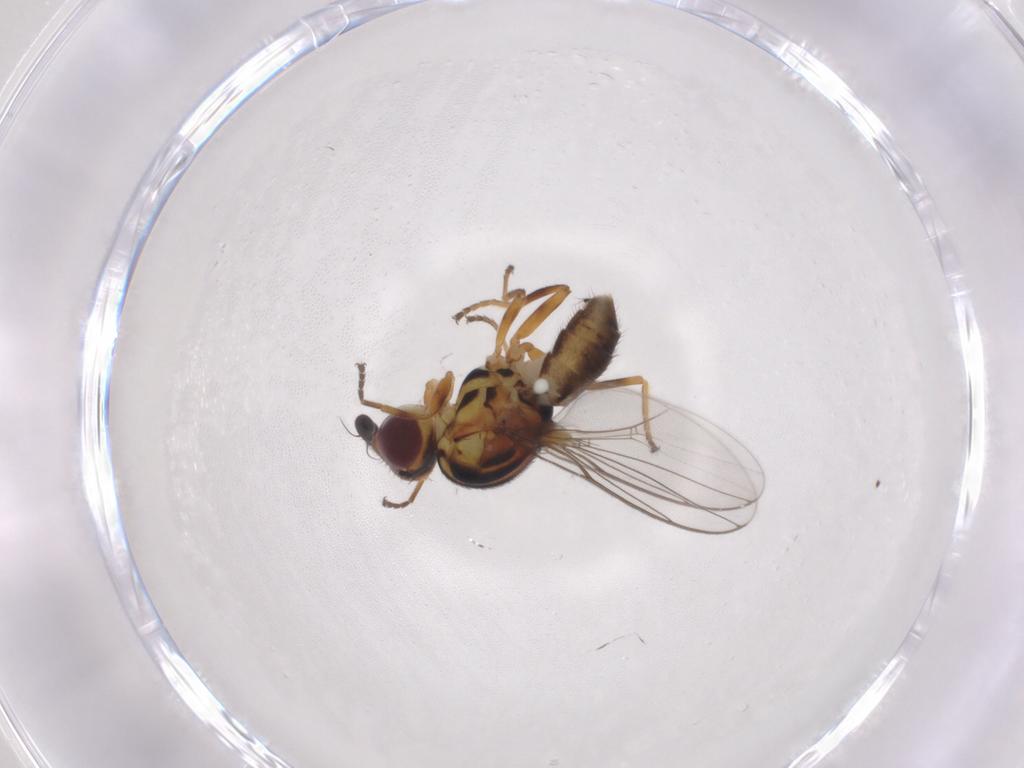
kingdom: Animalia
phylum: Arthropoda
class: Insecta
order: Diptera
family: Chloropidae
